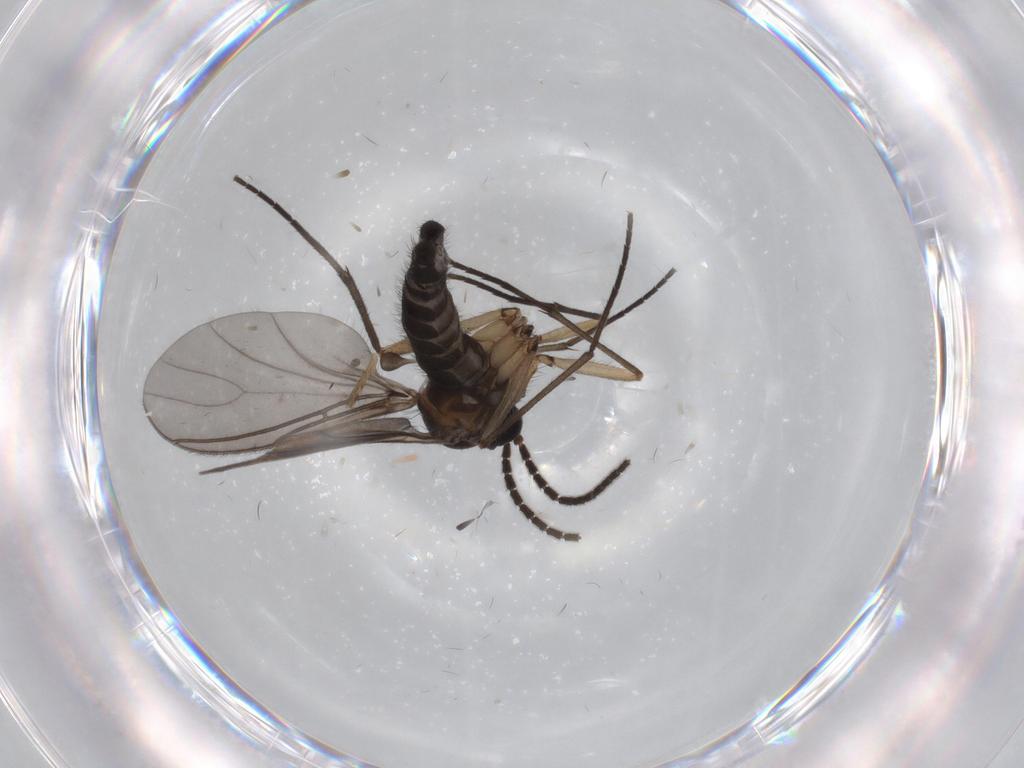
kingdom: Animalia
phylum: Arthropoda
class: Insecta
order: Diptera
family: Sciaridae
